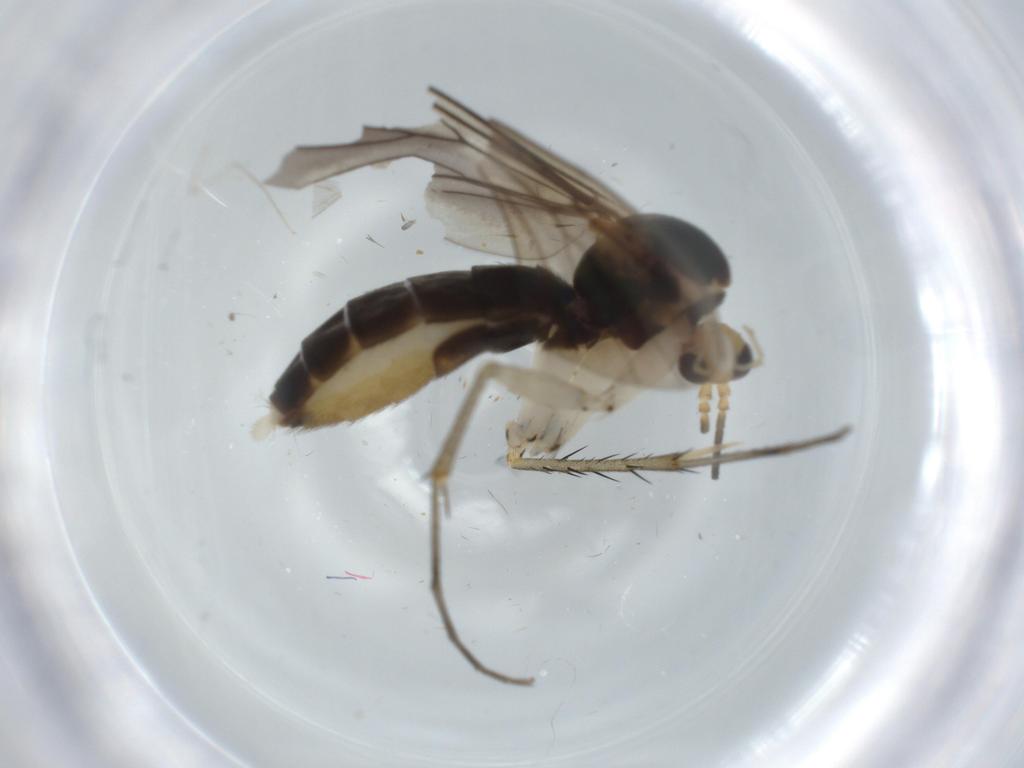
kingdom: Animalia
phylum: Arthropoda
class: Insecta
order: Diptera
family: Mycetophilidae
